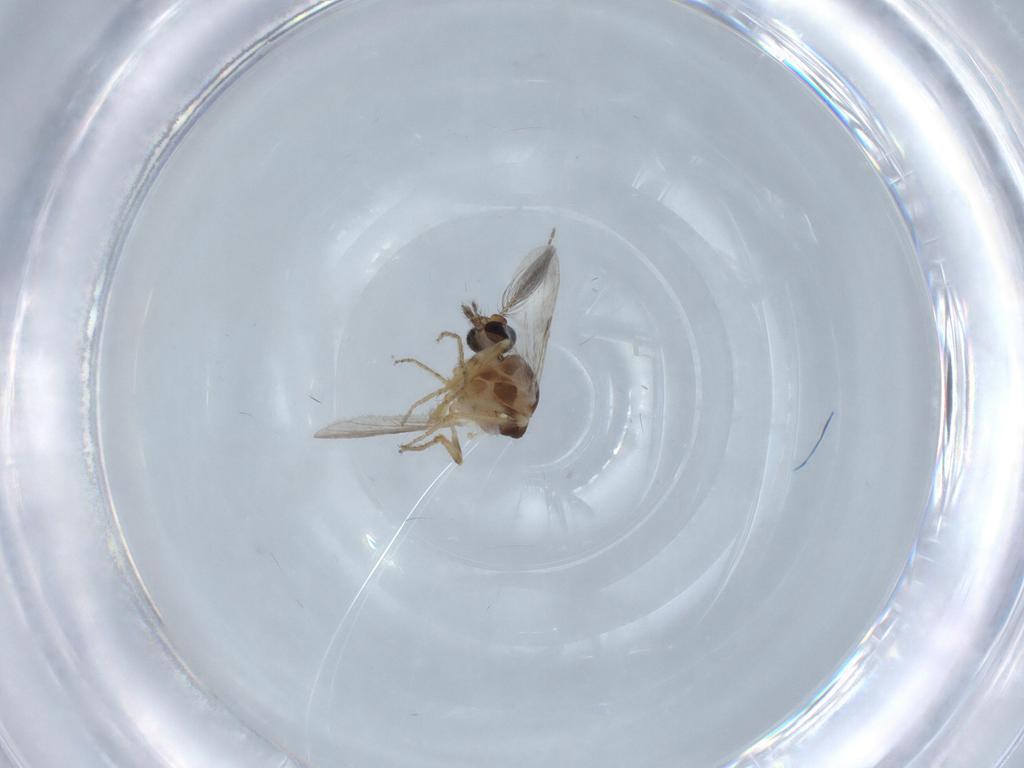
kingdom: Animalia
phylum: Arthropoda
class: Insecta
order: Diptera
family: Ceratopogonidae
